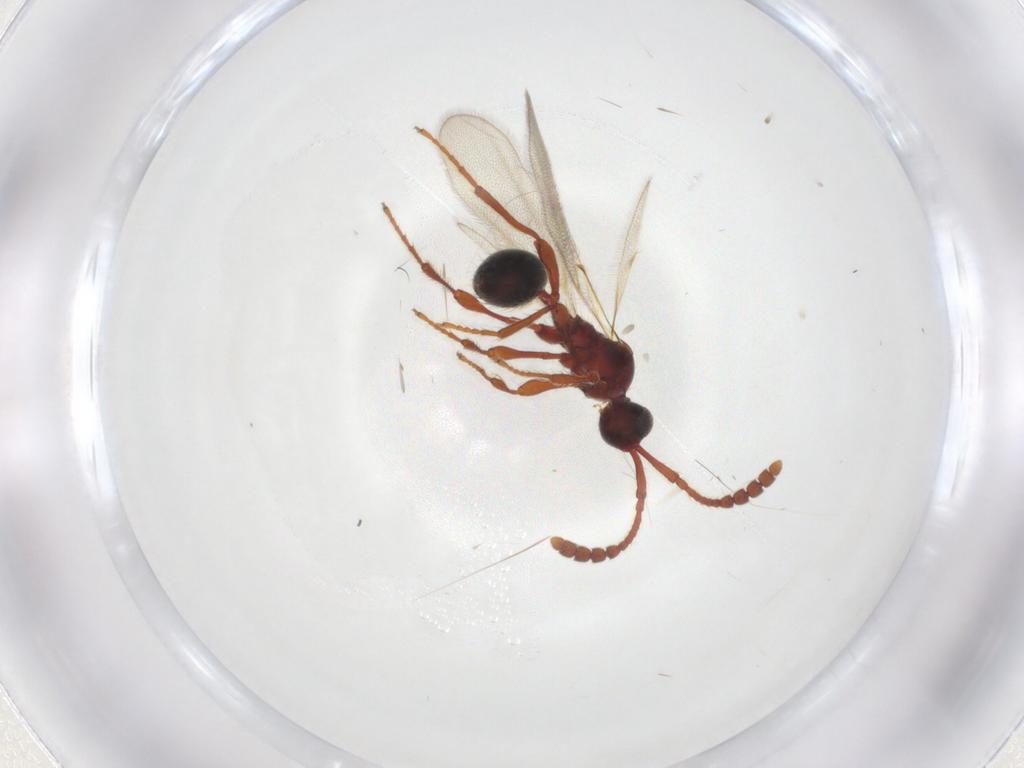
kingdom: Animalia
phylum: Arthropoda
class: Insecta
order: Hymenoptera
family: Diapriidae
